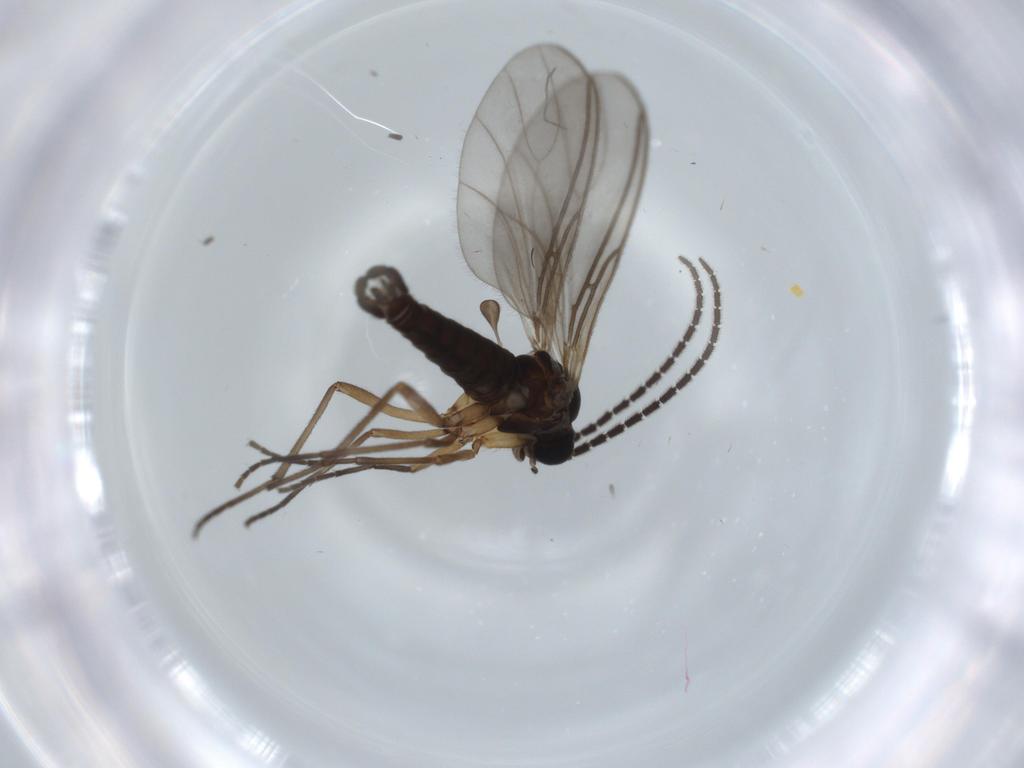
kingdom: Animalia
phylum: Arthropoda
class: Insecta
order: Diptera
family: Sciaridae
